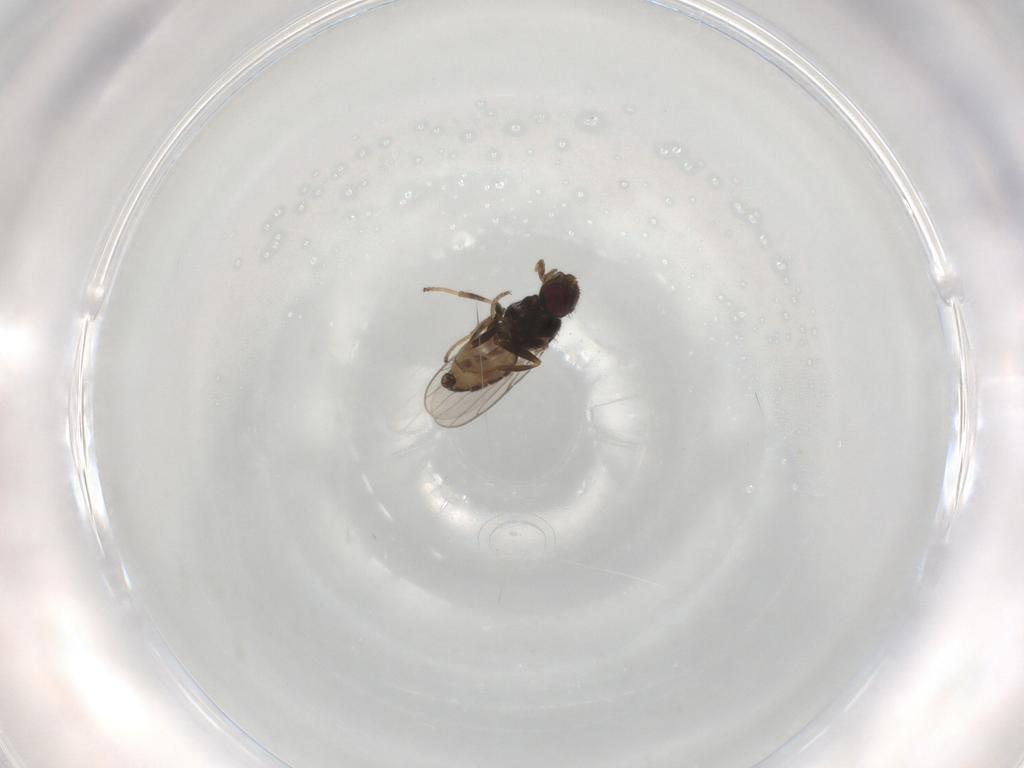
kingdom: Animalia
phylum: Arthropoda
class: Insecta
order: Diptera
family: Chloropidae
